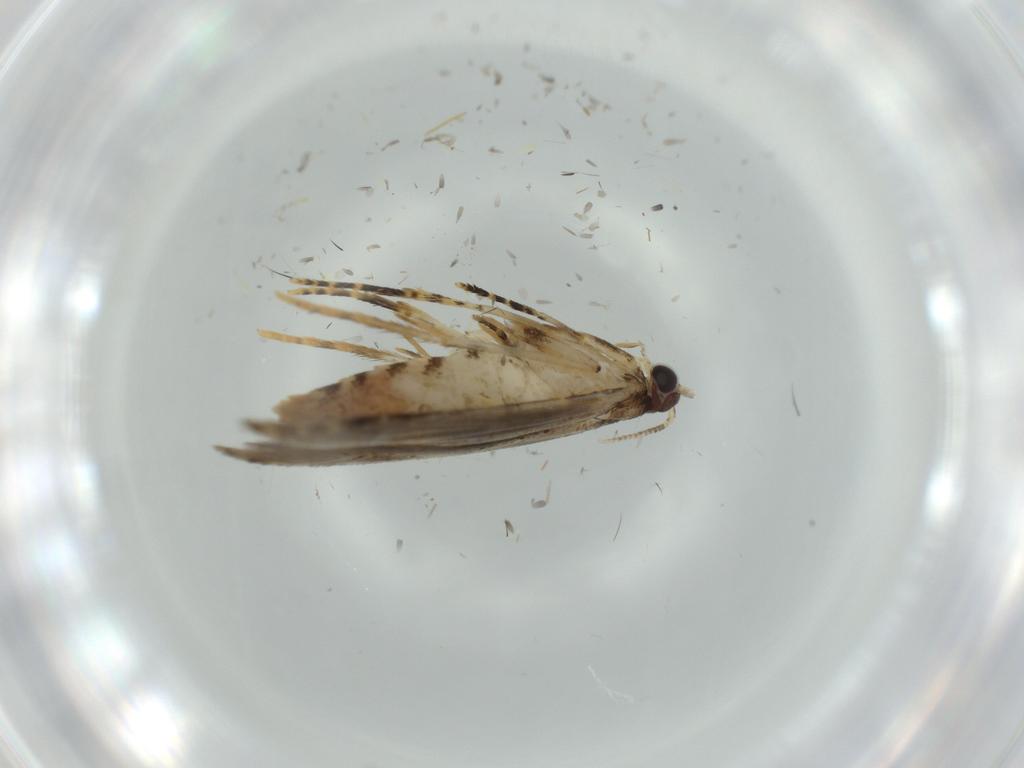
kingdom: Animalia
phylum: Arthropoda
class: Insecta
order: Lepidoptera
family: Tineidae
